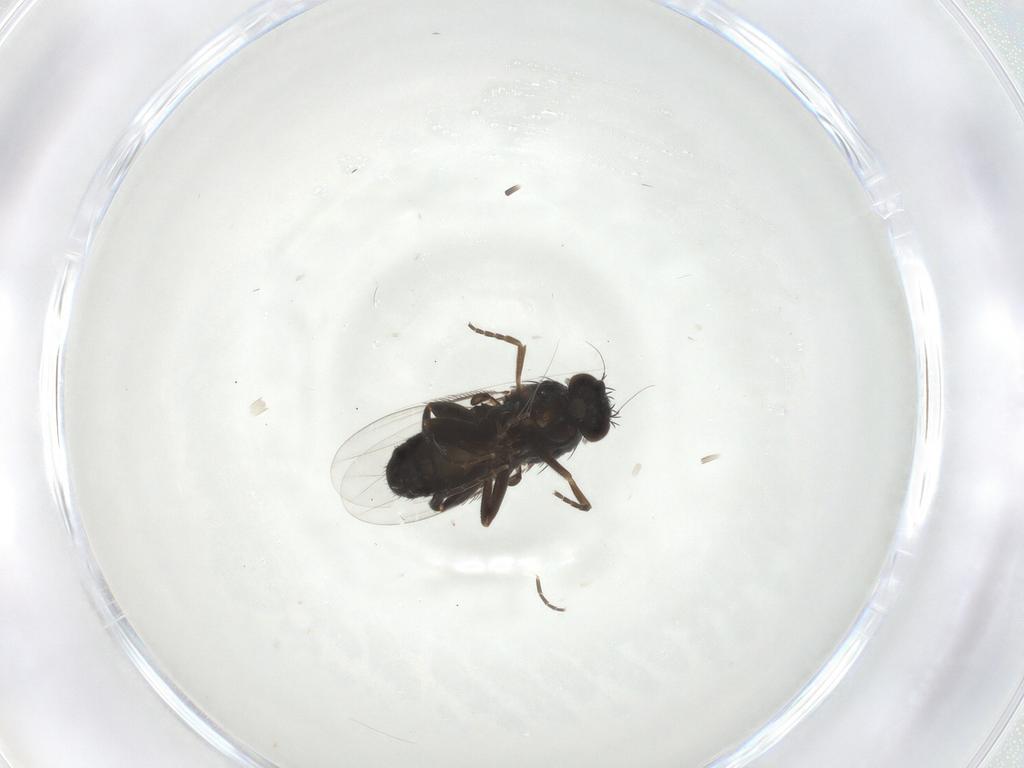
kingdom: Animalia
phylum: Arthropoda
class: Insecta
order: Diptera
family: Phoridae
